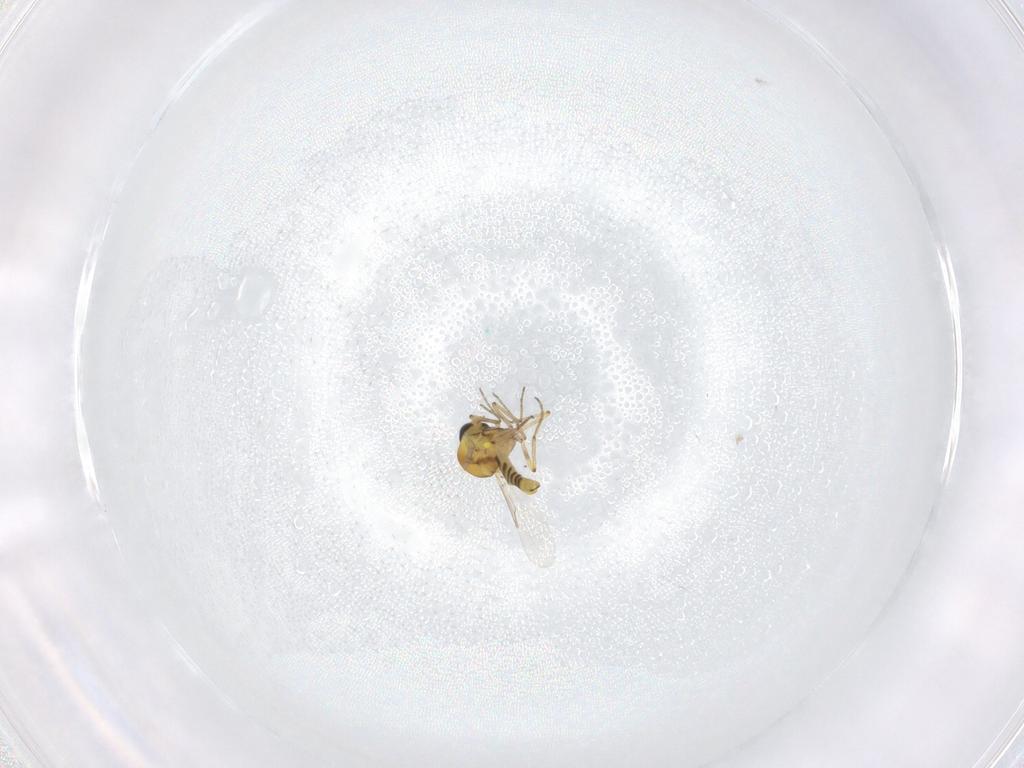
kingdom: Animalia
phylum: Arthropoda
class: Insecta
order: Diptera
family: Ceratopogonidae
